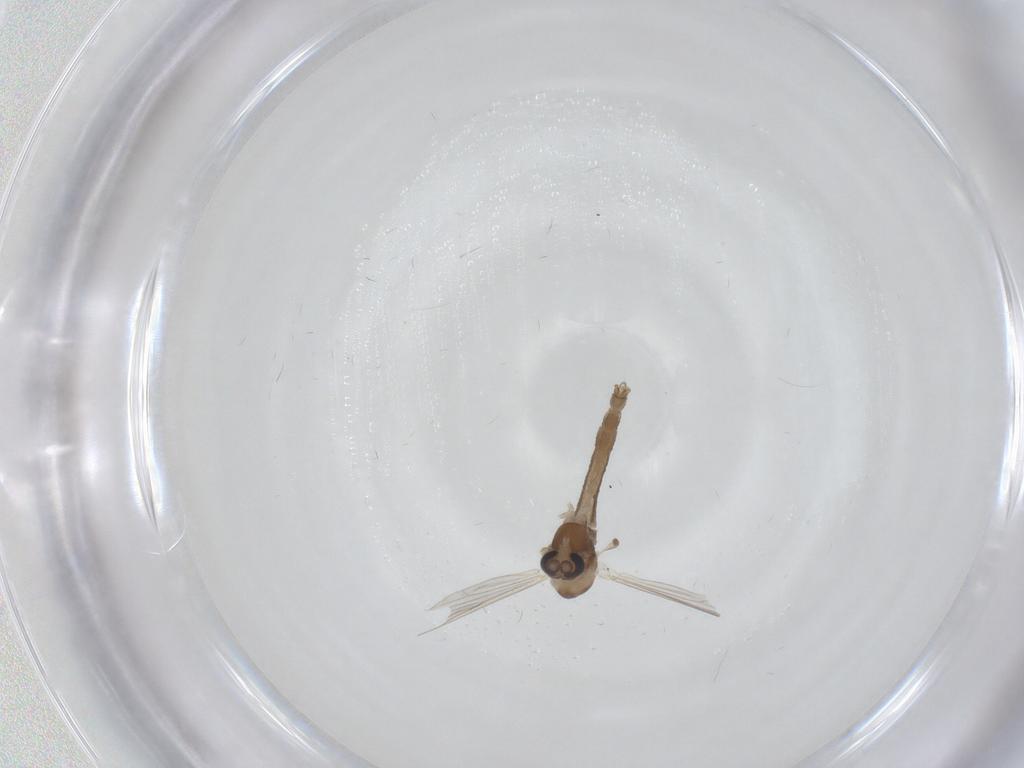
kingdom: Animalia
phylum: Arthropoda
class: Insecta
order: Diptera
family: Chironomidae
